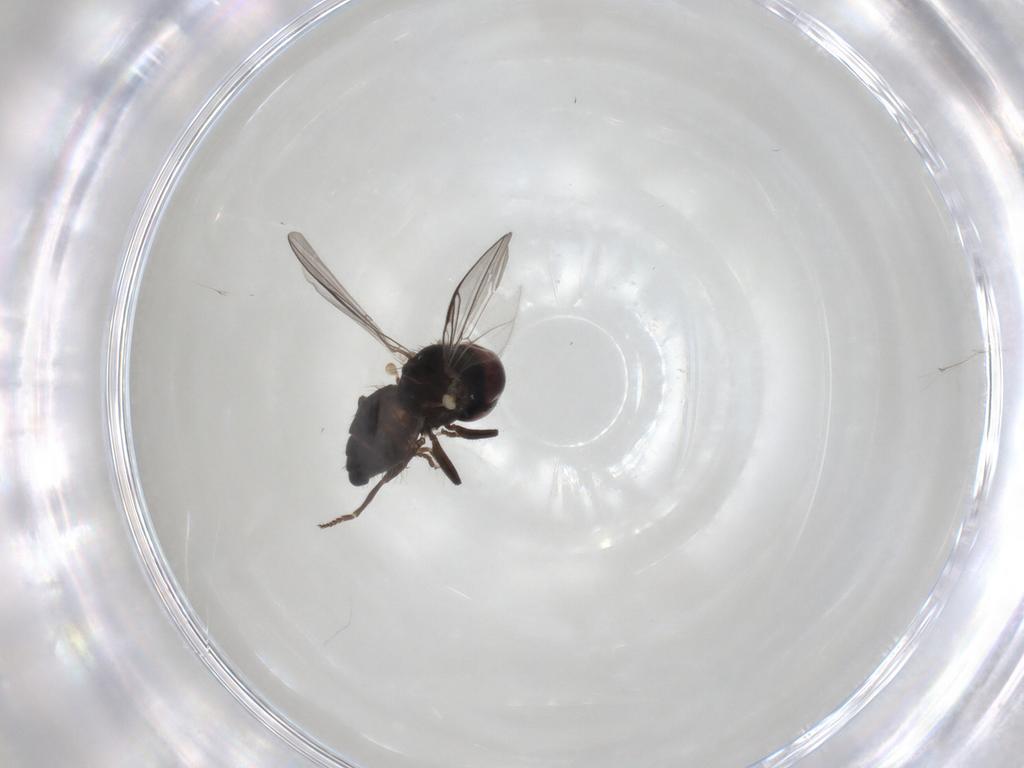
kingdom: Animalia
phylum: Arthropoda
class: Insecta
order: Diptera
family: Pipunculidae
